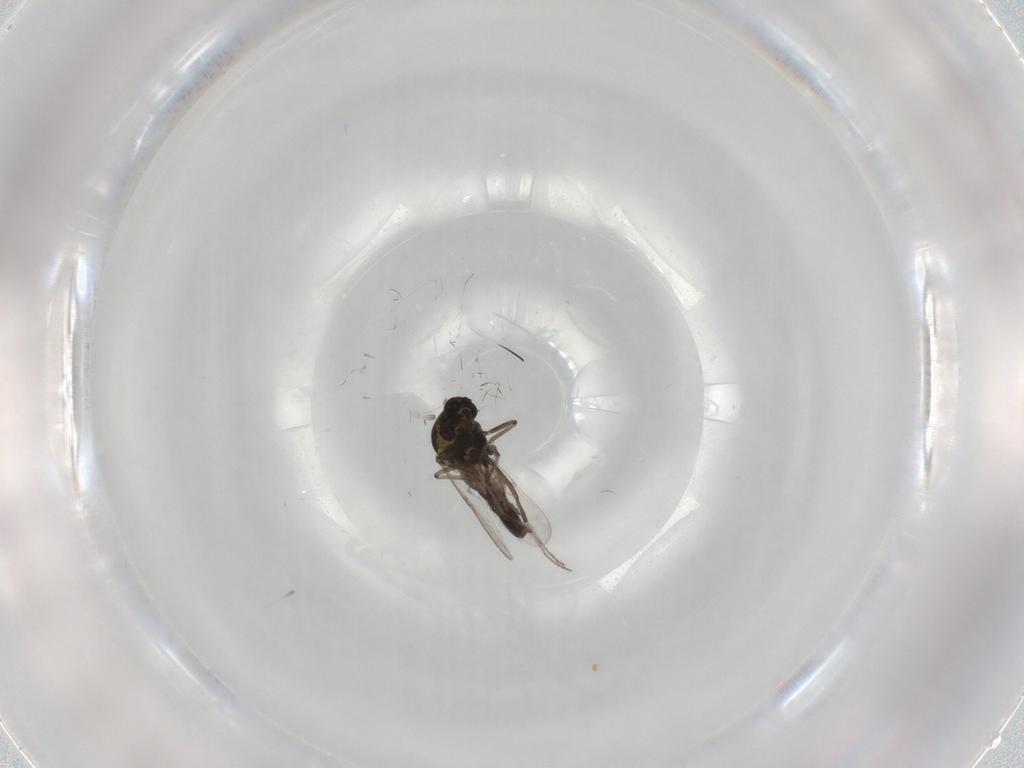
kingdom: Animalia
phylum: Arthropoda
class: Insecta
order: Diptera
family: Ceratopogonidae
